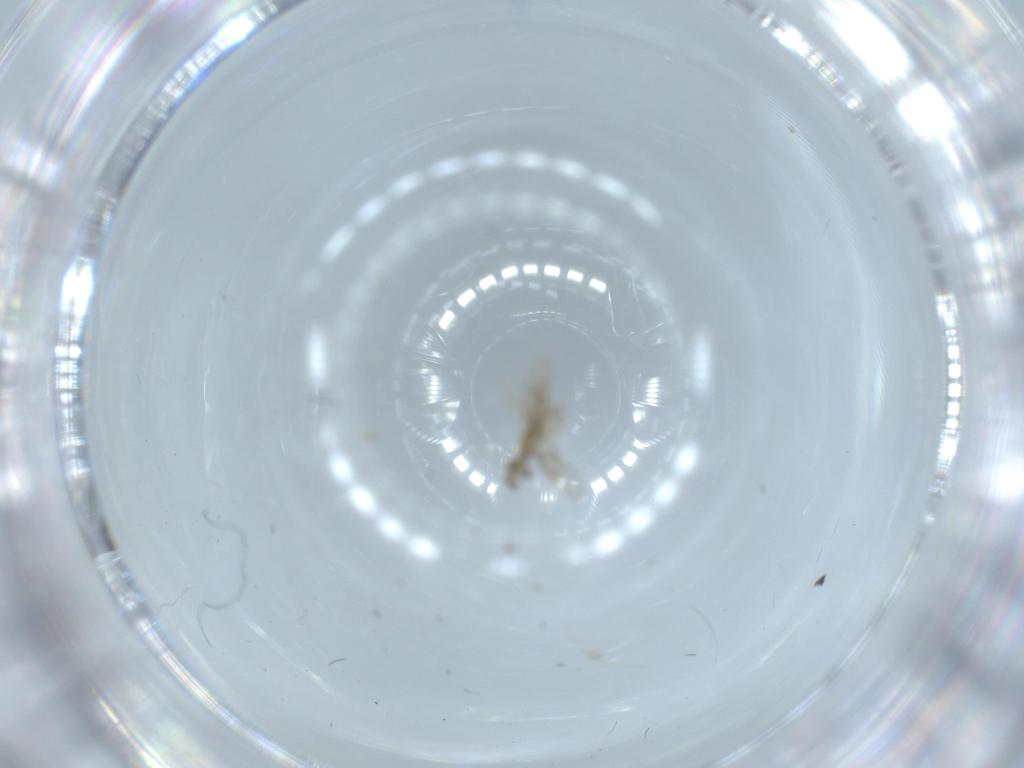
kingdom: Animalia
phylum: Arthropoda
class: Insecta
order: Hymenoptera
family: Aphelinidae
